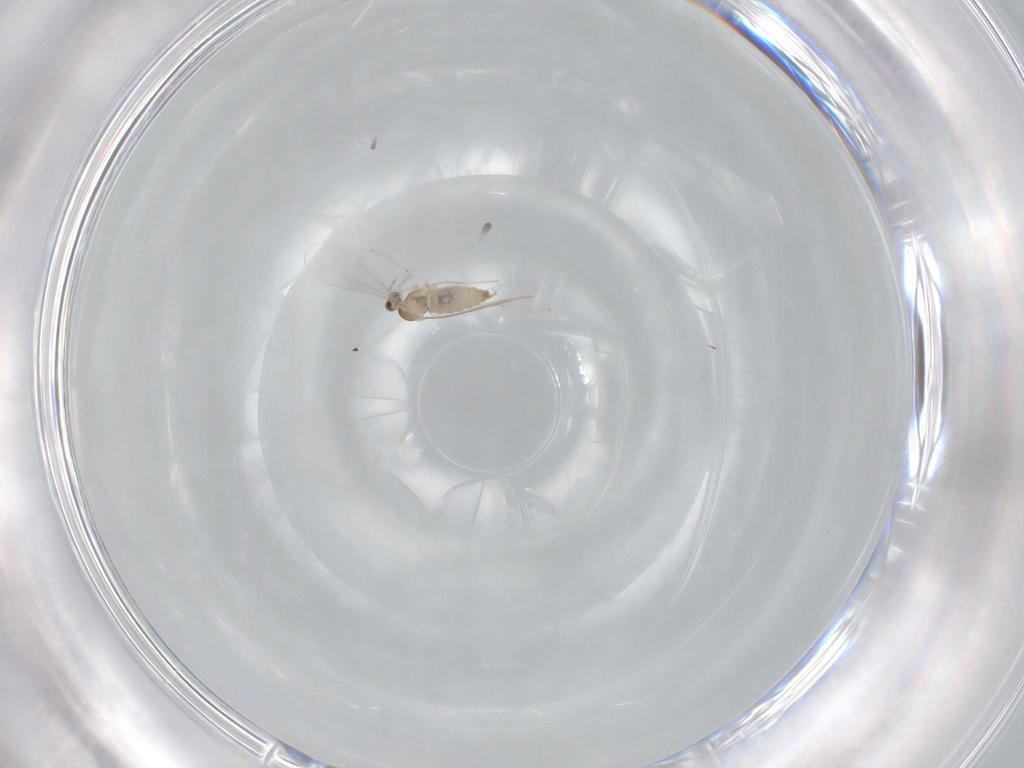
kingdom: Animalia
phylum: Arthropoda
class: Insecta
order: Diptera
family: Cecidomyiidae
